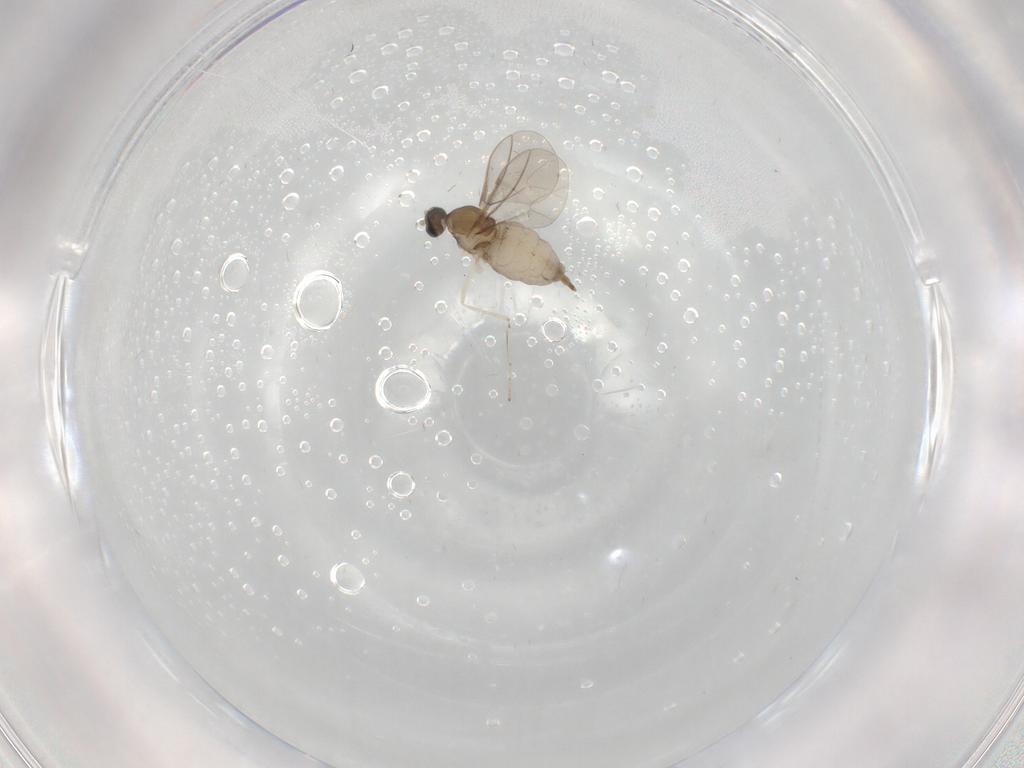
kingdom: Animalia
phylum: Arthropoda
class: Insecta
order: Diptera
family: Cecidomyiidae
